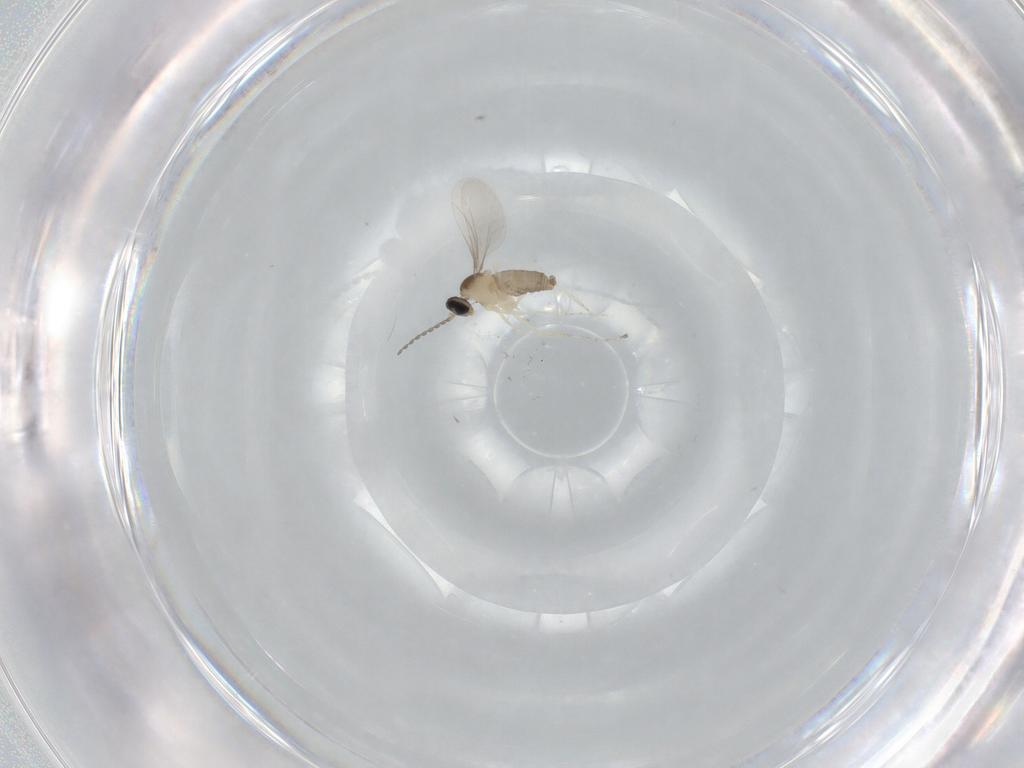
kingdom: Animalia
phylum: Arthropoda
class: Insecta
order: Diptera
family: Cecidomyiidae
